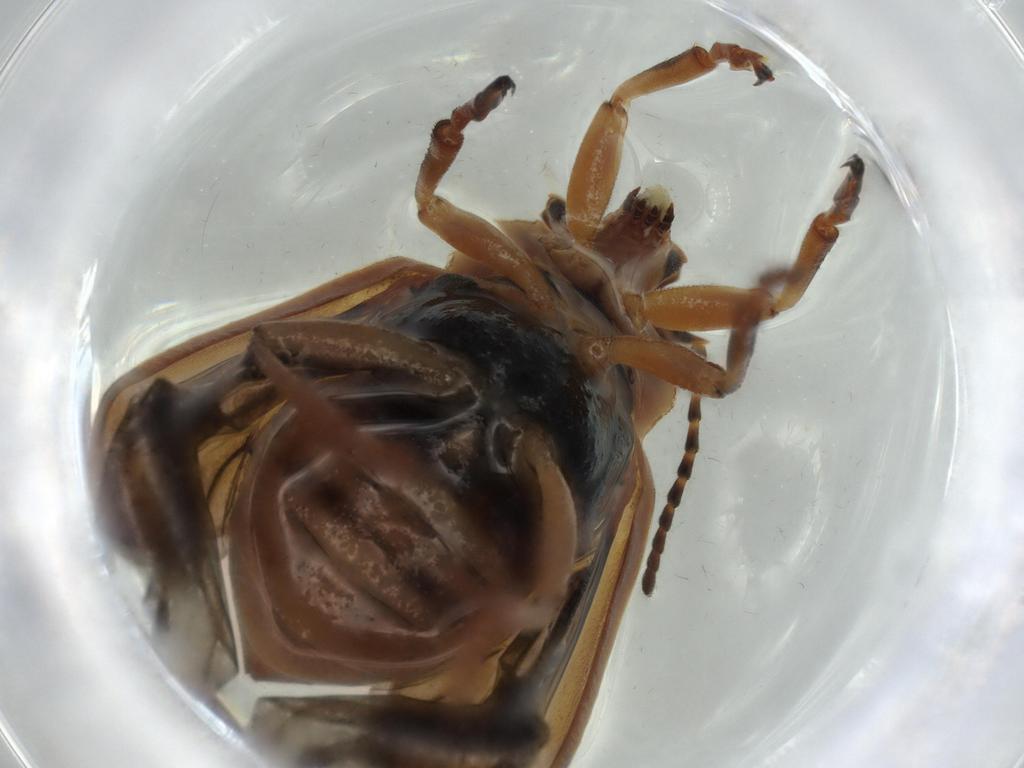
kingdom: Animalia
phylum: Arthropoda
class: Insecta
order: Coleoptera
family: Chrysomelidae
